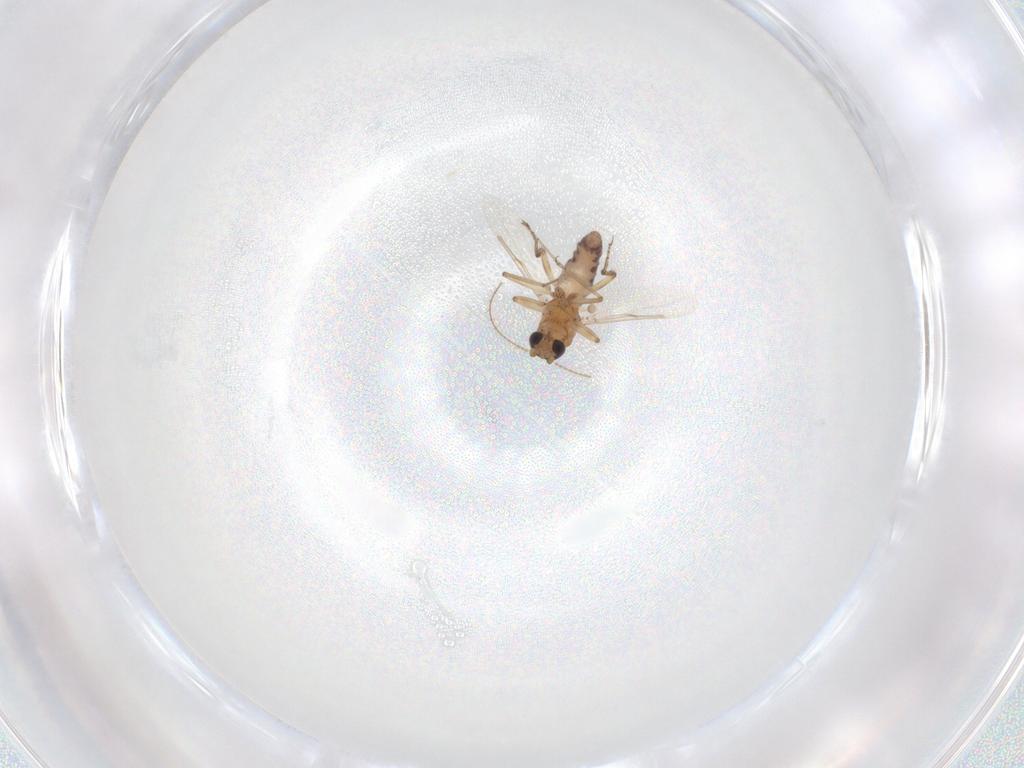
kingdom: Animalia
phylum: Arthropoda
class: Insecta
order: Diptera
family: Ceratopogonidae
